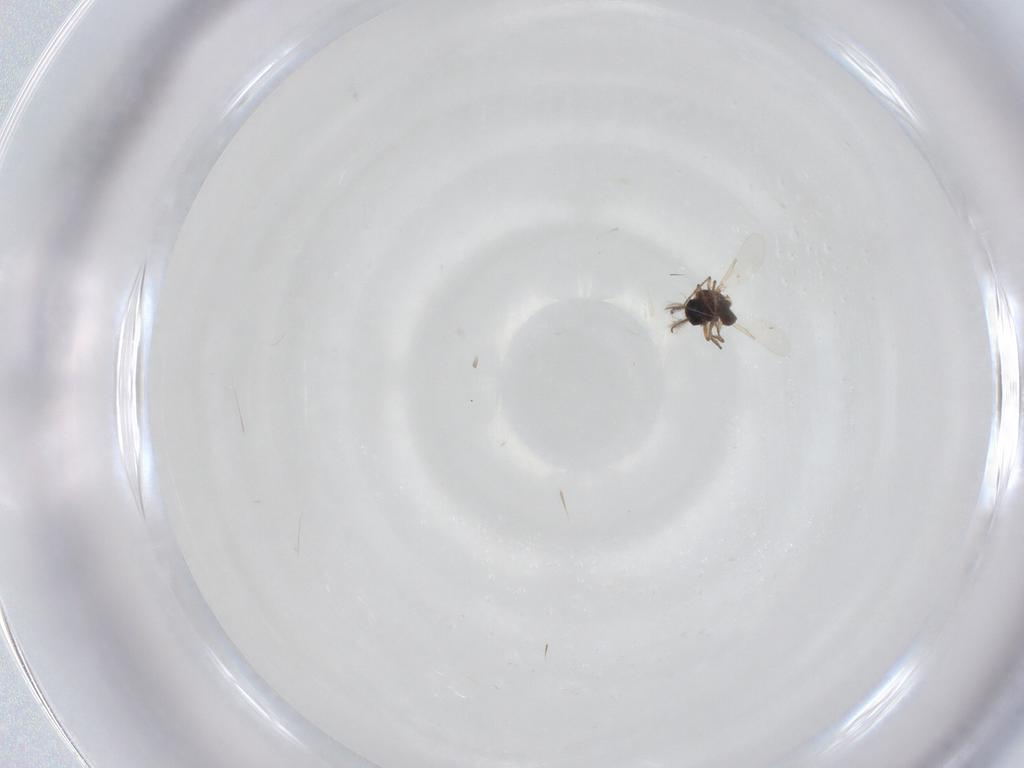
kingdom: Animalia
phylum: Arthropoda
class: Insecta
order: Diptera
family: Ceratopogonidae
